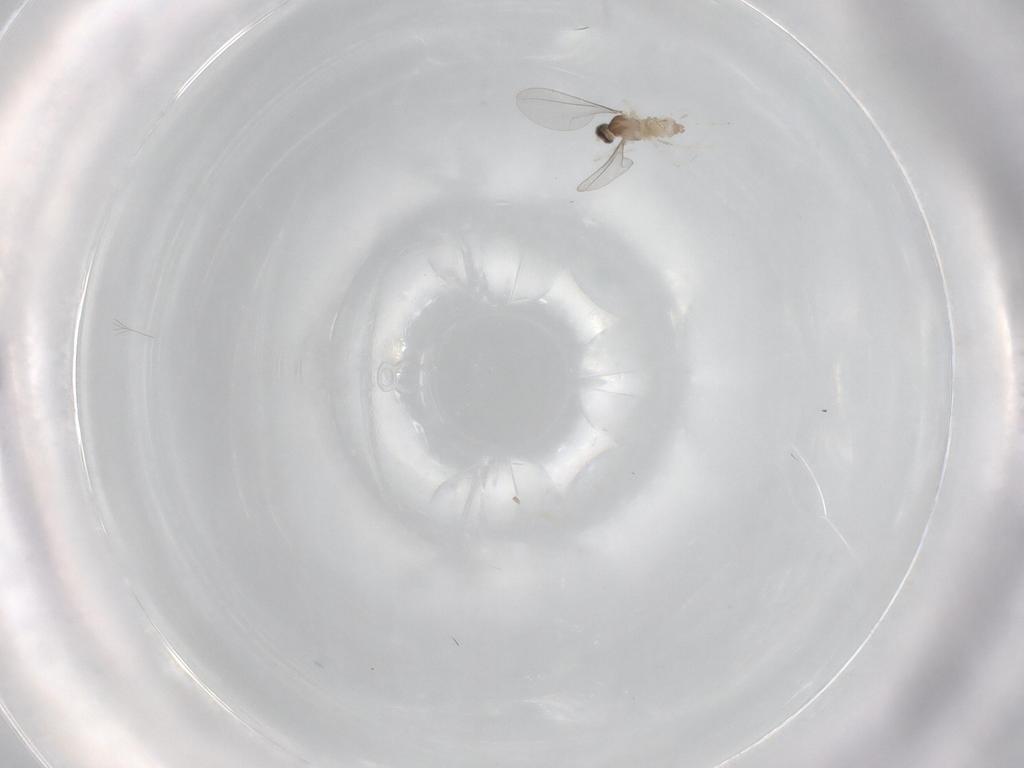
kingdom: Animalia
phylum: Arthropoda
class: Insecta
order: Diptera
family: Cecidomyiidae
